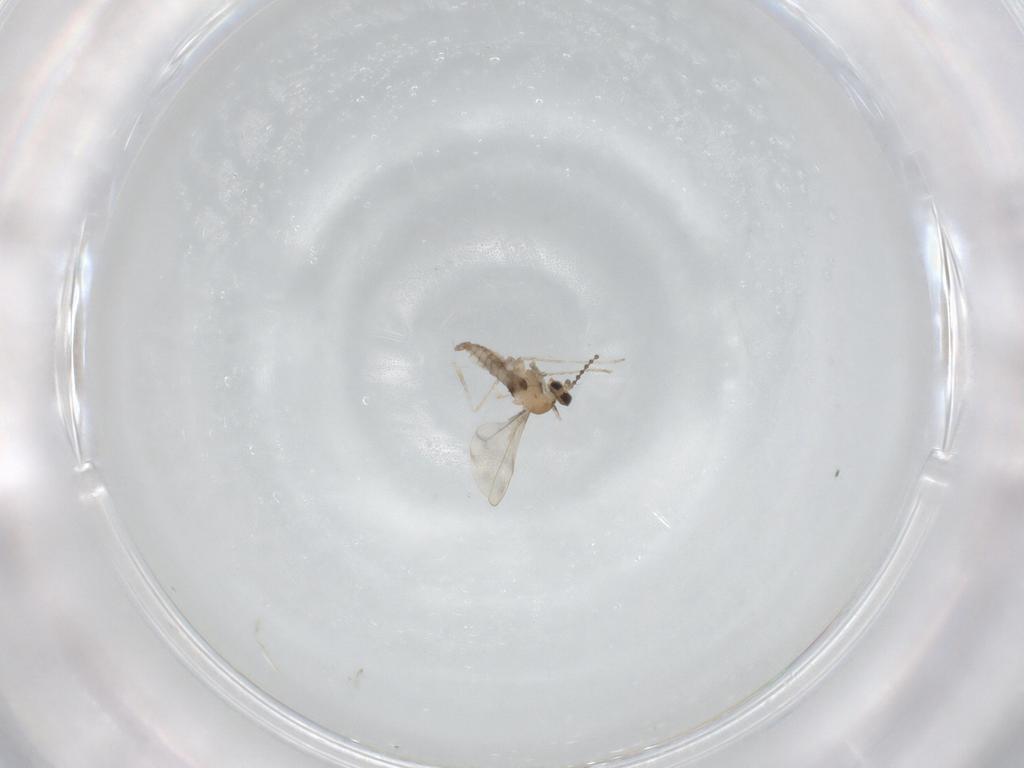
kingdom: Animalia
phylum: Arthropoda
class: Insecta
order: Diptera
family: Cecidomyiidae
